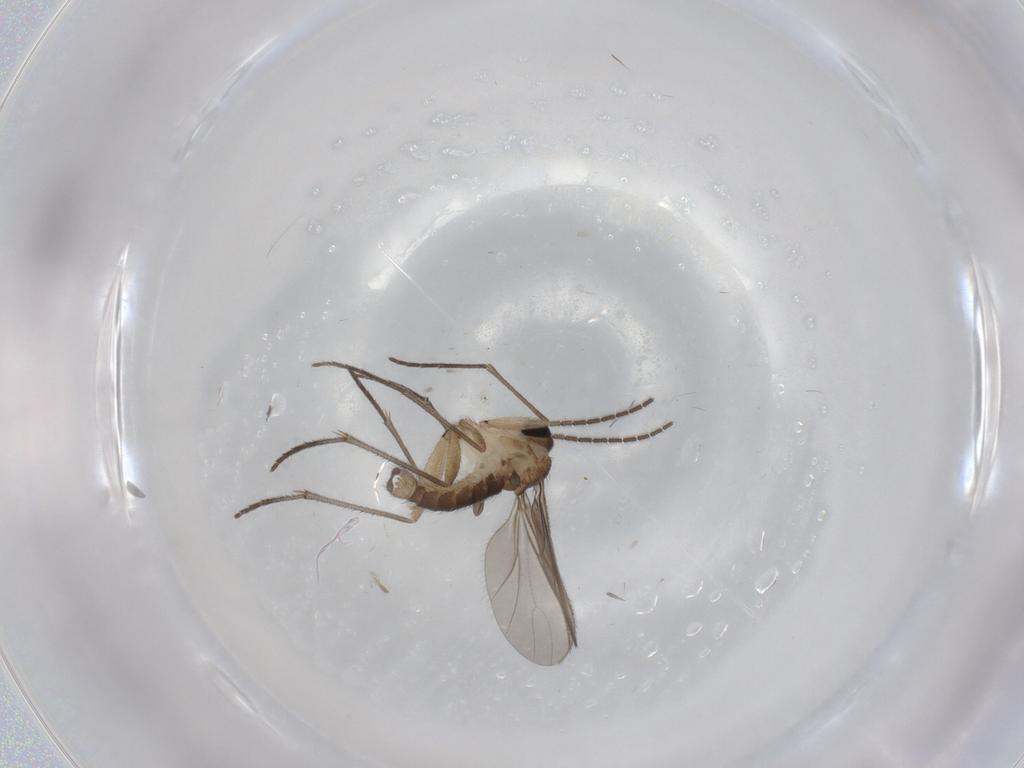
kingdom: Animalia
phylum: Arthropoda
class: Insecta
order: Diptera
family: Sciaridae
